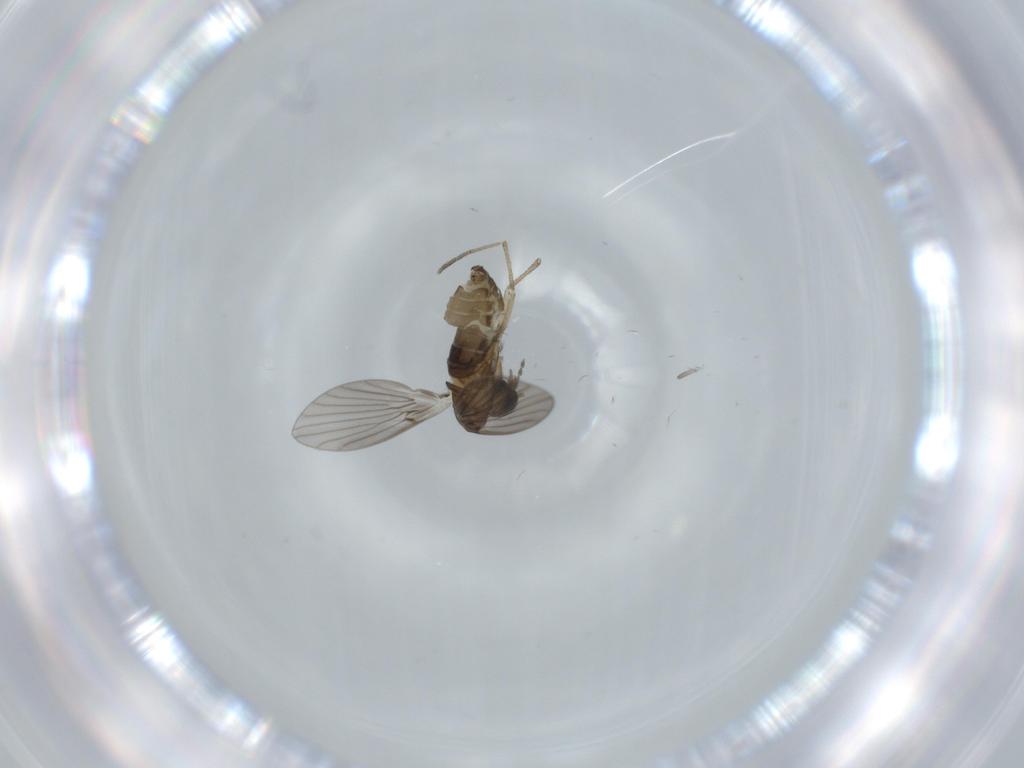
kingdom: Animalia
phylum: Arthropoda
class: Insecta
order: Diptera
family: Psychodidae
